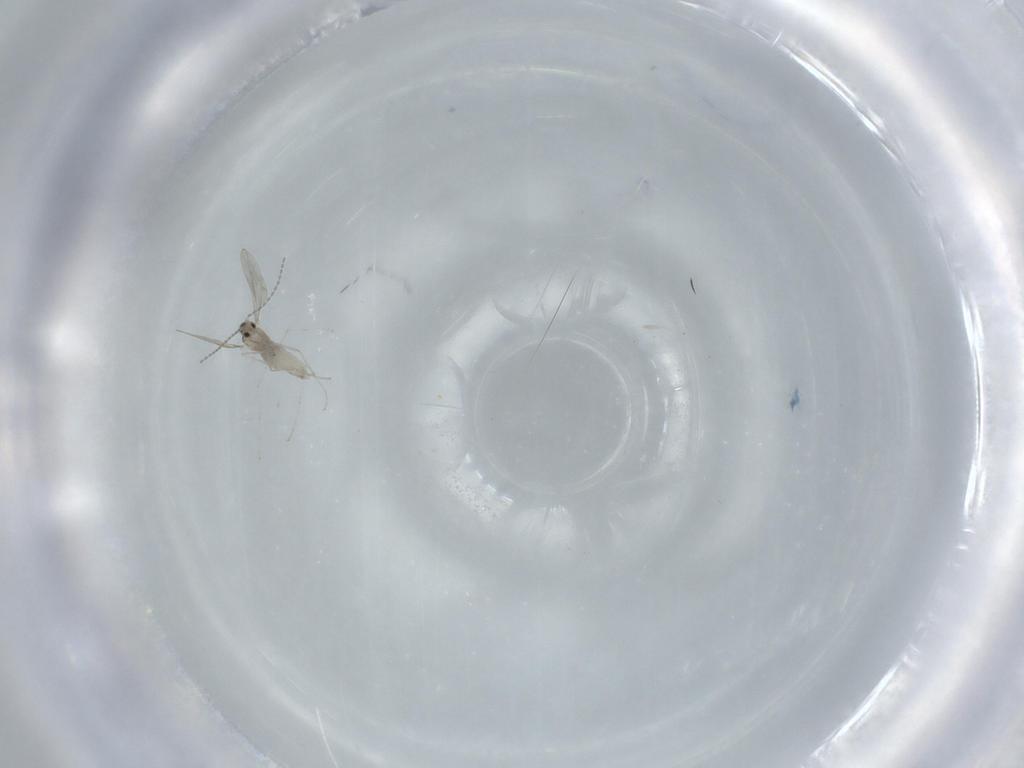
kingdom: Animalia
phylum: Arthropoda
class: Insecta
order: Diptera
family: Cecidomyiidae
